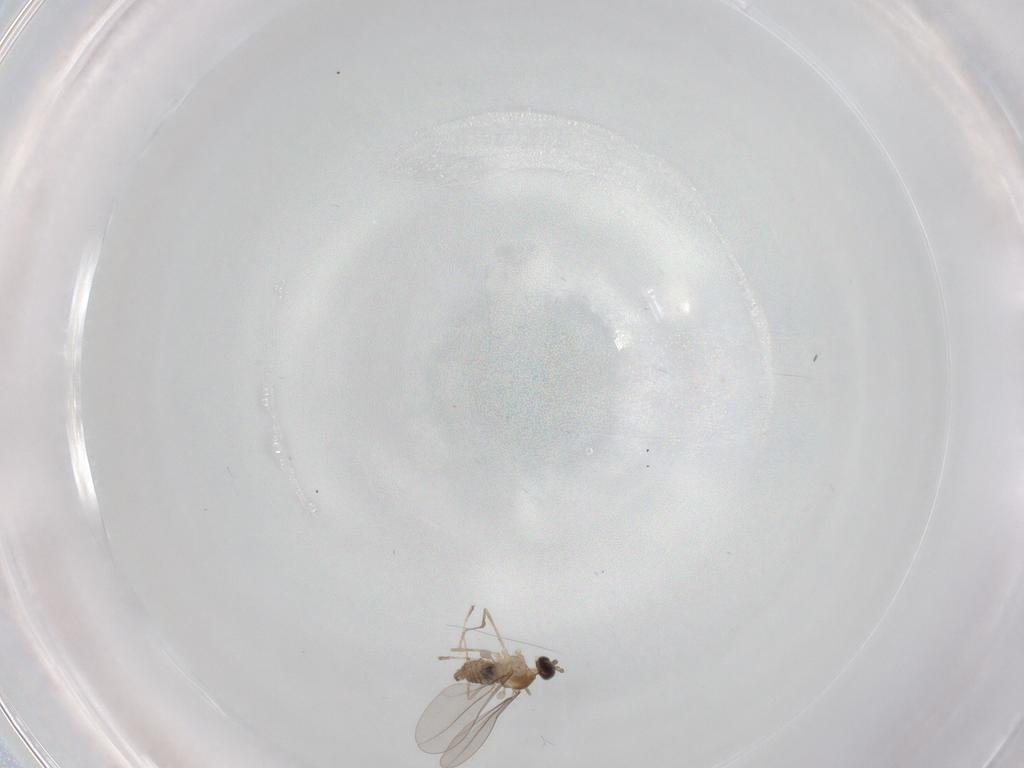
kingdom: Animalia
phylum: Arthropoda
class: Insecta
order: Diptera
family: Cecidomyiidae
